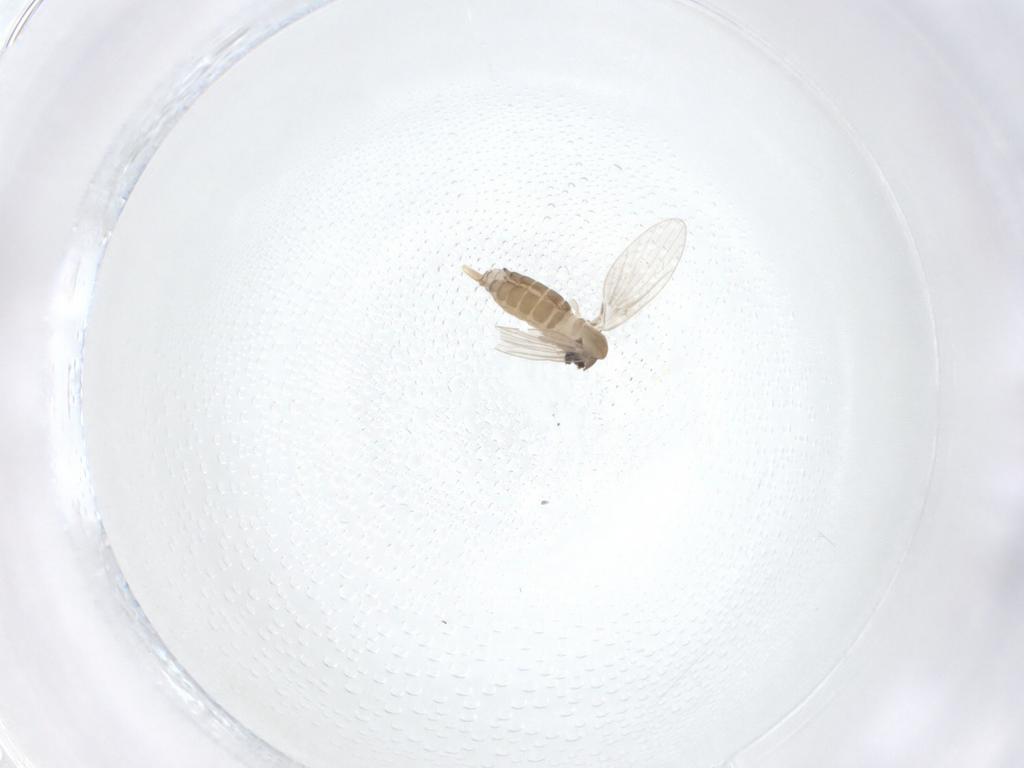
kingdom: Animalia
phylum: Arthropoda
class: Insecta
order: Diptera
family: Psychodidae
